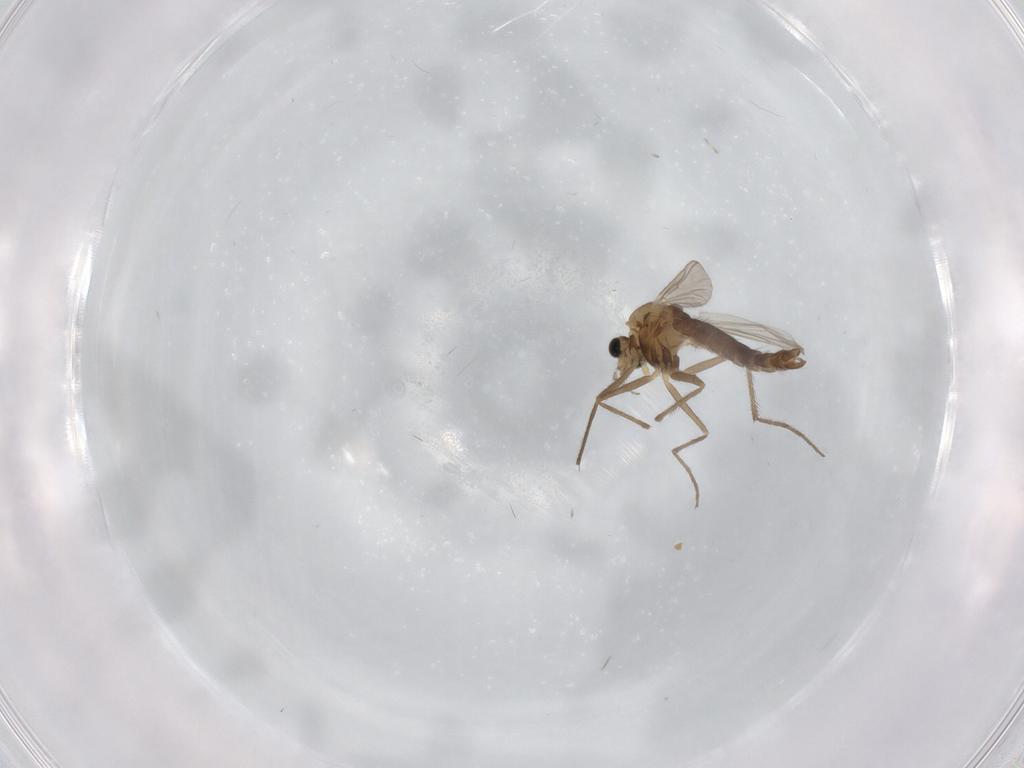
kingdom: Animalia
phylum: Arthropoda
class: Insecta
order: Diptera
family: Chironomidae
